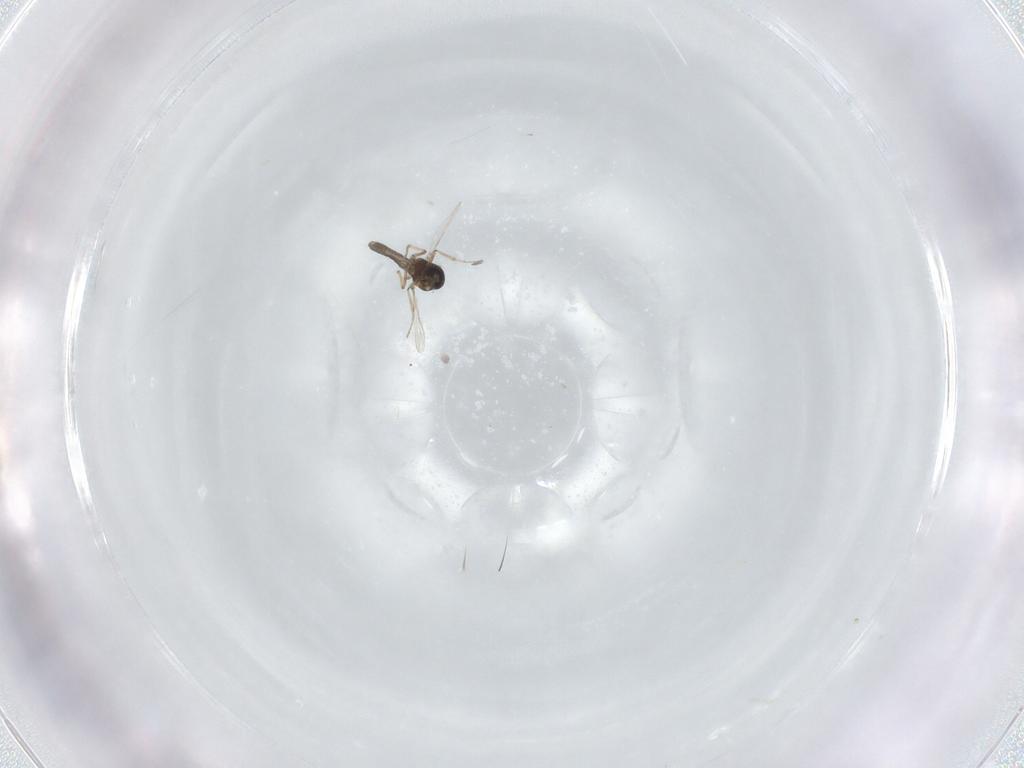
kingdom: Animalia
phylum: Arthropoda
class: Insecta
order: Diptera
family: Ceratopogonidae
